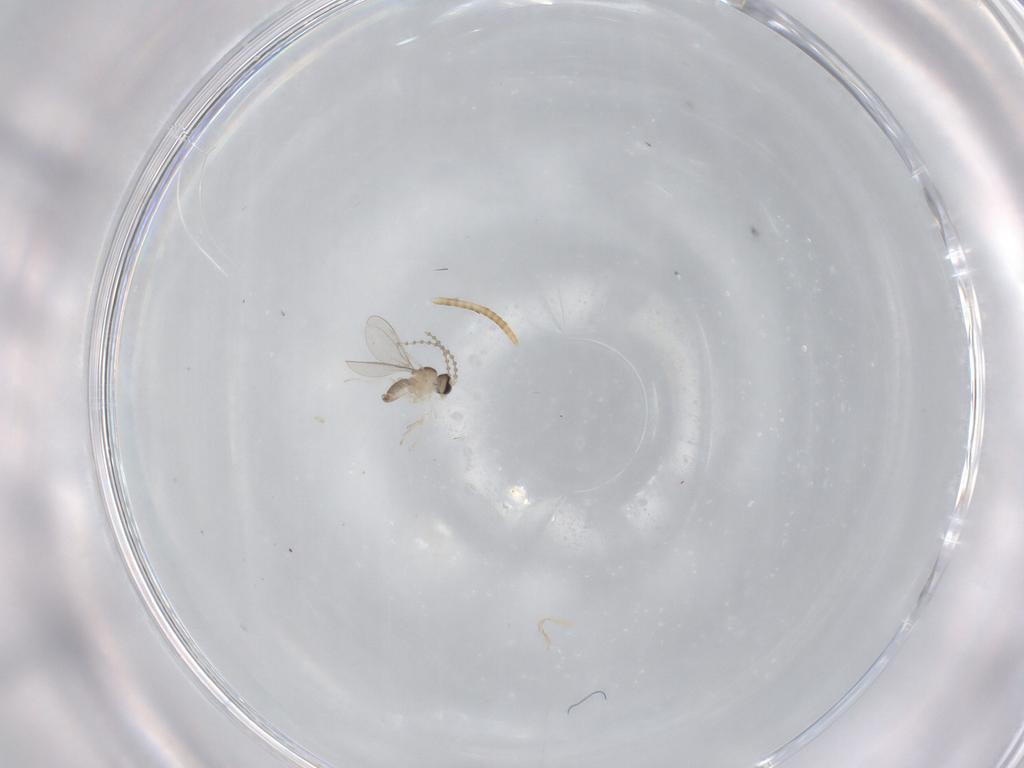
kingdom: Animalia
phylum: Arthropoda
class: Insecta
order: Diptera
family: Cecidomyiidae
